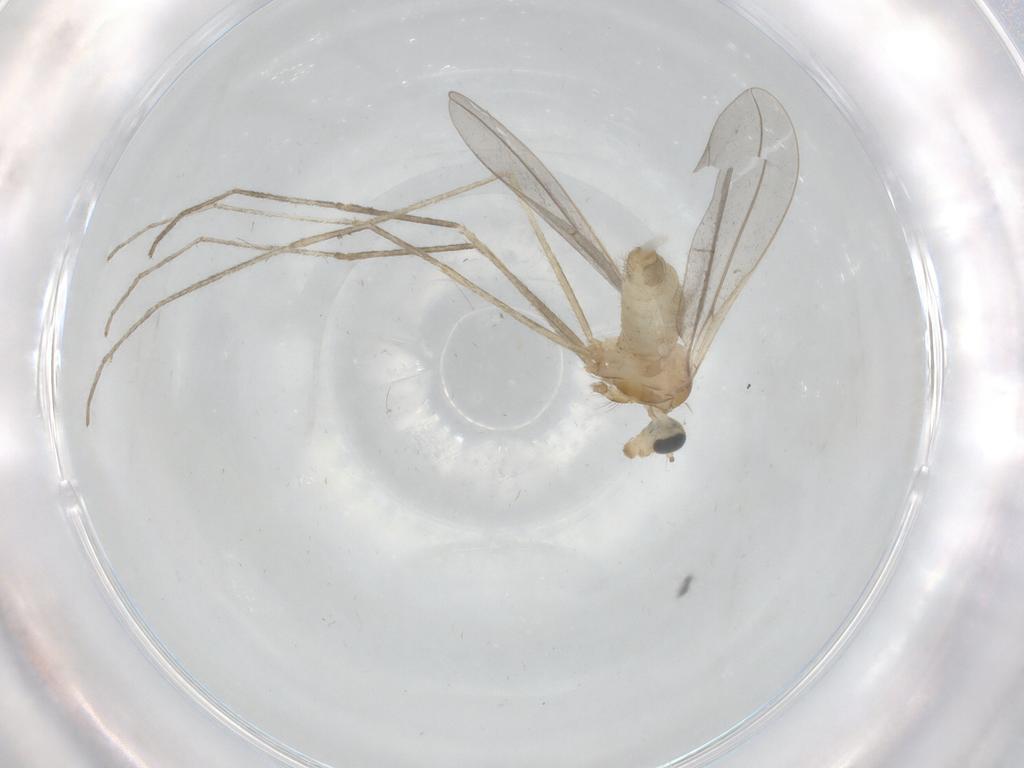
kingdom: Animalia
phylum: Arthropoda
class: Insecta
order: Diptera
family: Cecidomyiidae
